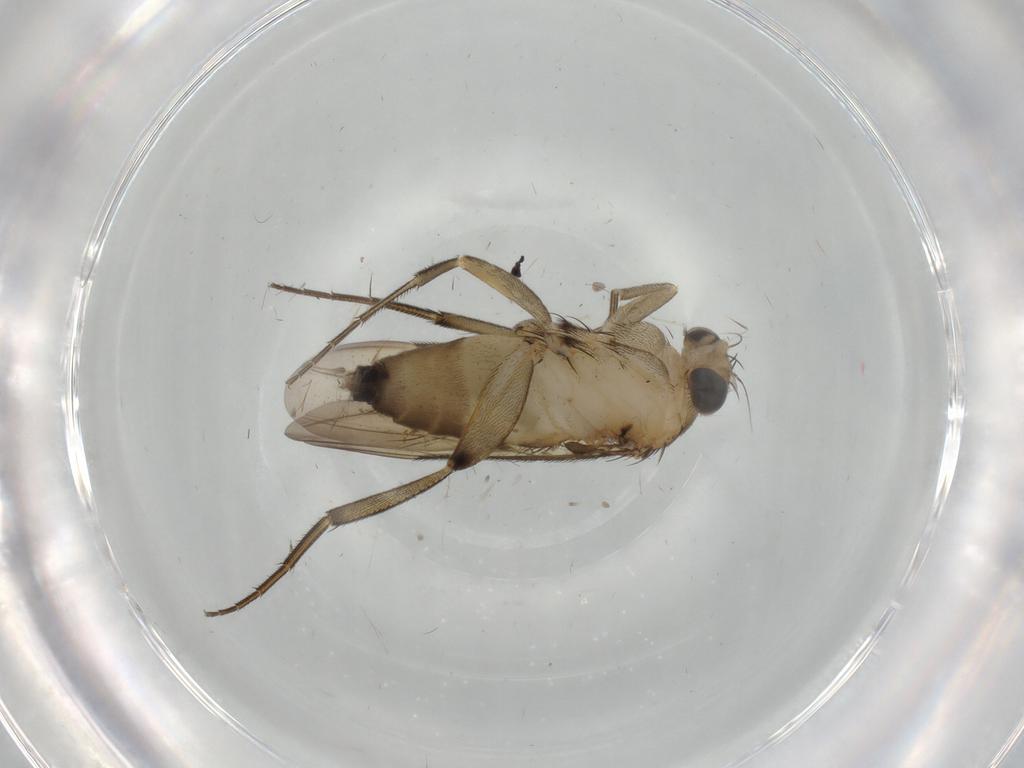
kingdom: Animalia
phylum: Arthropoda
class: Insecta
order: Diptera
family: Phoridae
